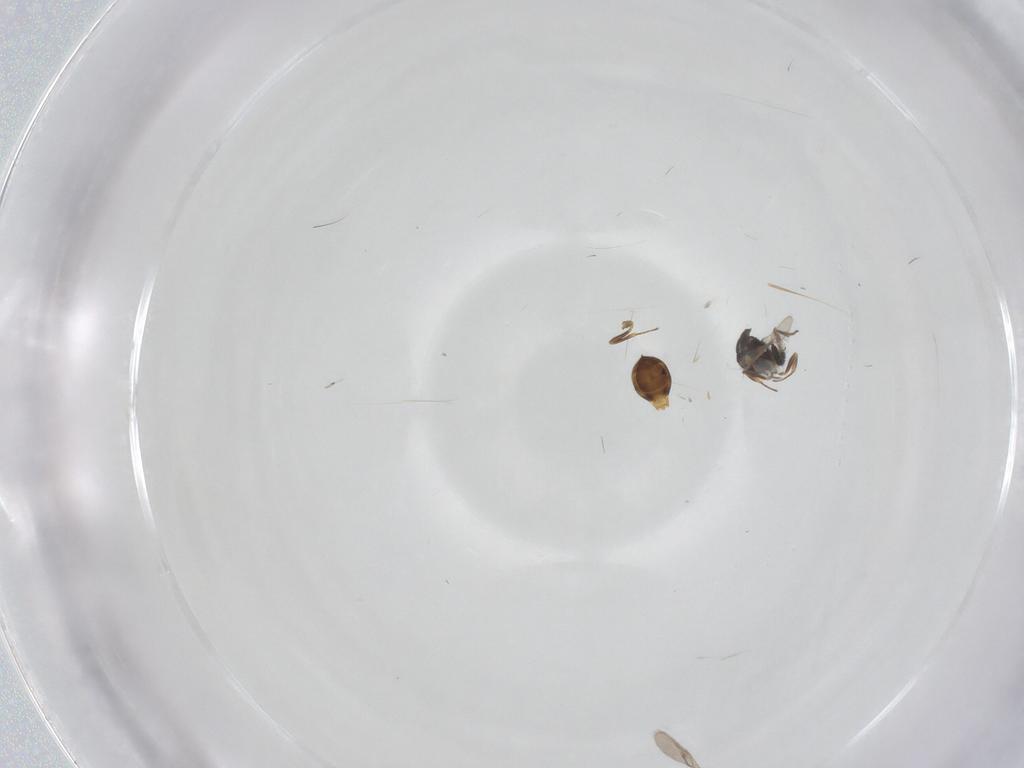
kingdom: Animalia
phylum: Arthropoda
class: Arachnida
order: Araneae
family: Pholcidae
